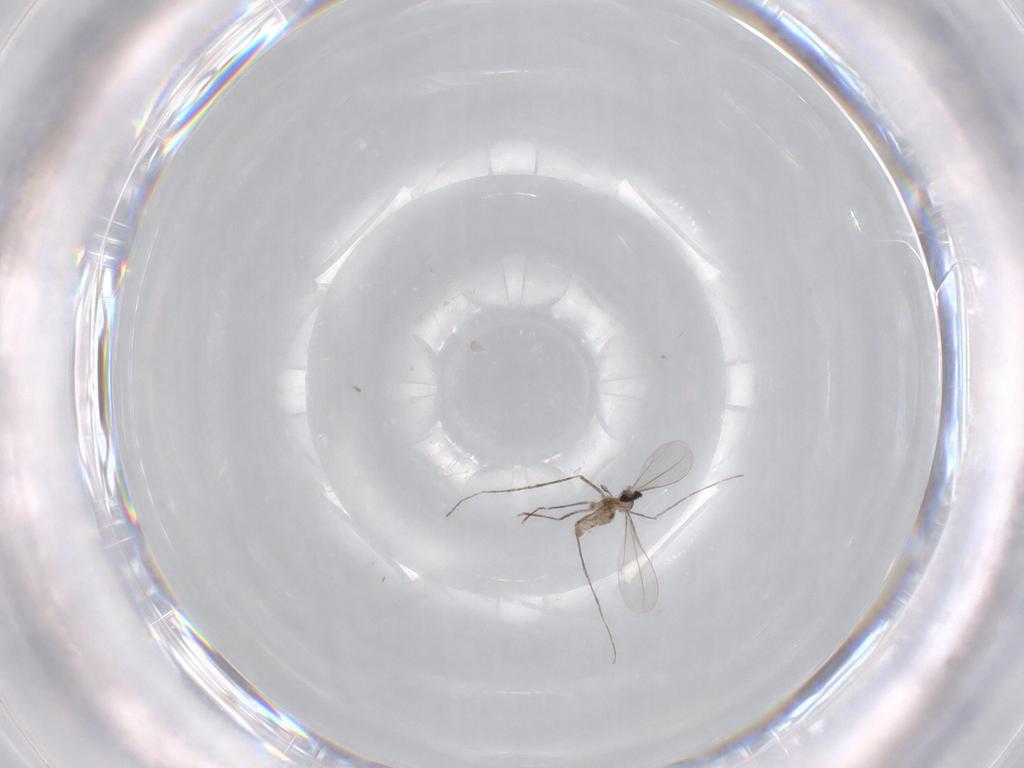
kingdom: Animalia
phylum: Arthropoda
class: Insecta
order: Diptera
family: Cecidomyiidae
